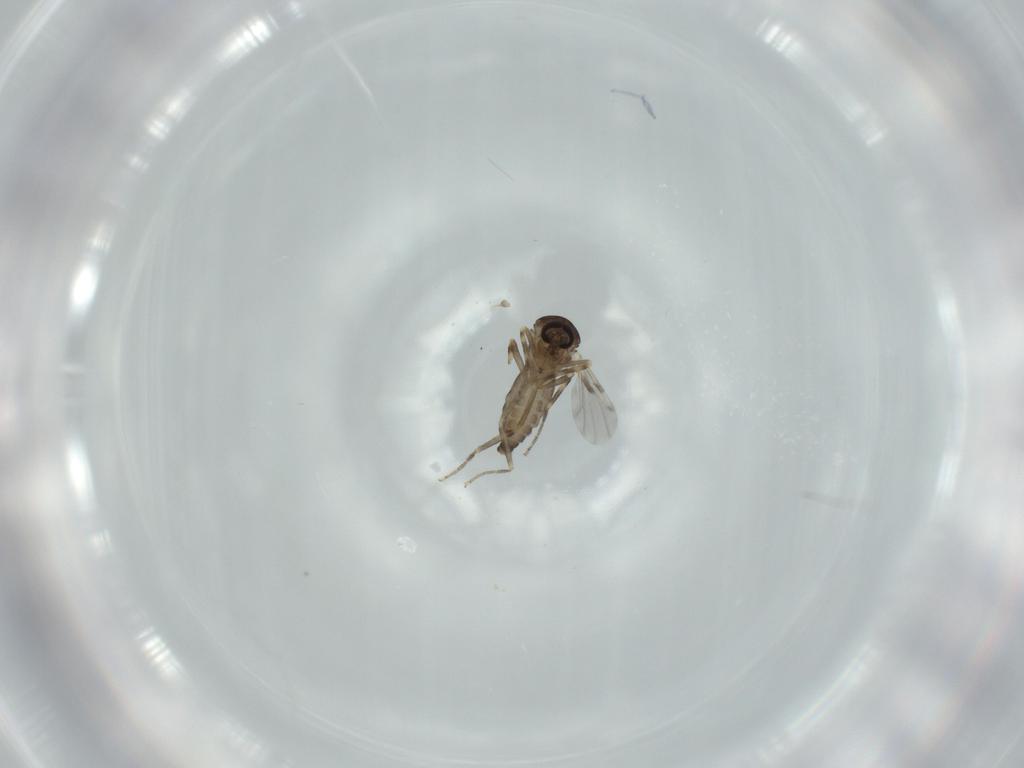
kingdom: Animalia
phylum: Arthropoda
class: Insecta
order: Diptera
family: Ceratopogonidae
